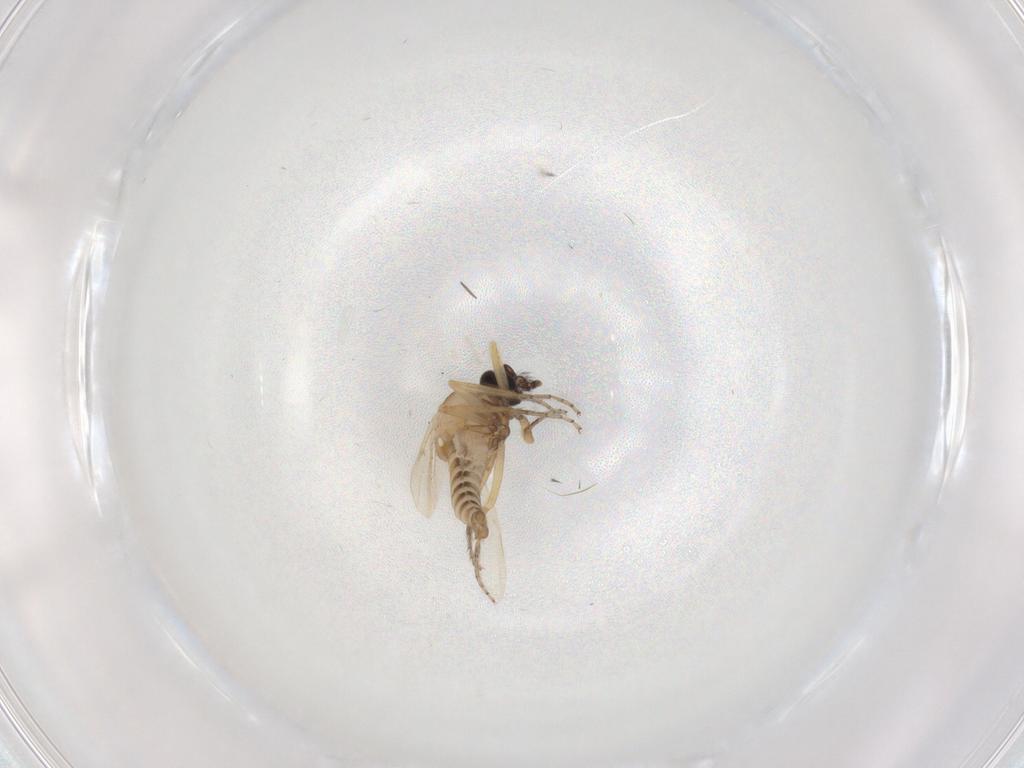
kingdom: Animalia
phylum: Arthropoda
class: Insecta
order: Diptera
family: Ceratopogonidae
